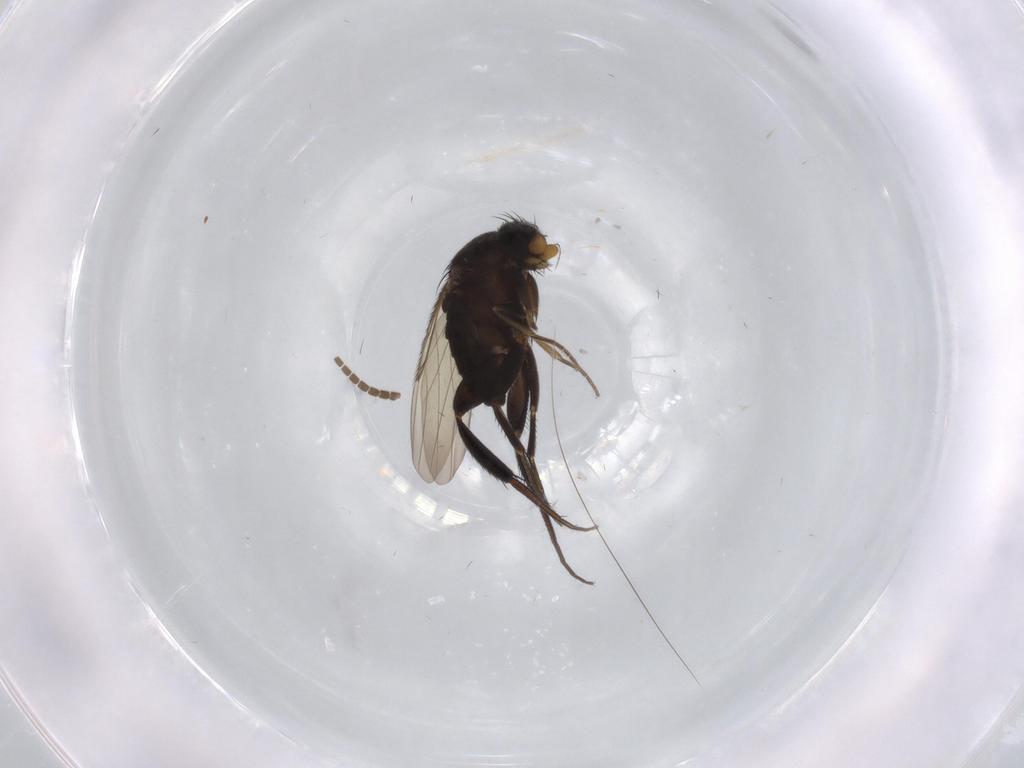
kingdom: Animalia
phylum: Arthropoda
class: Insecta
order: Diptera
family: Phoridae
